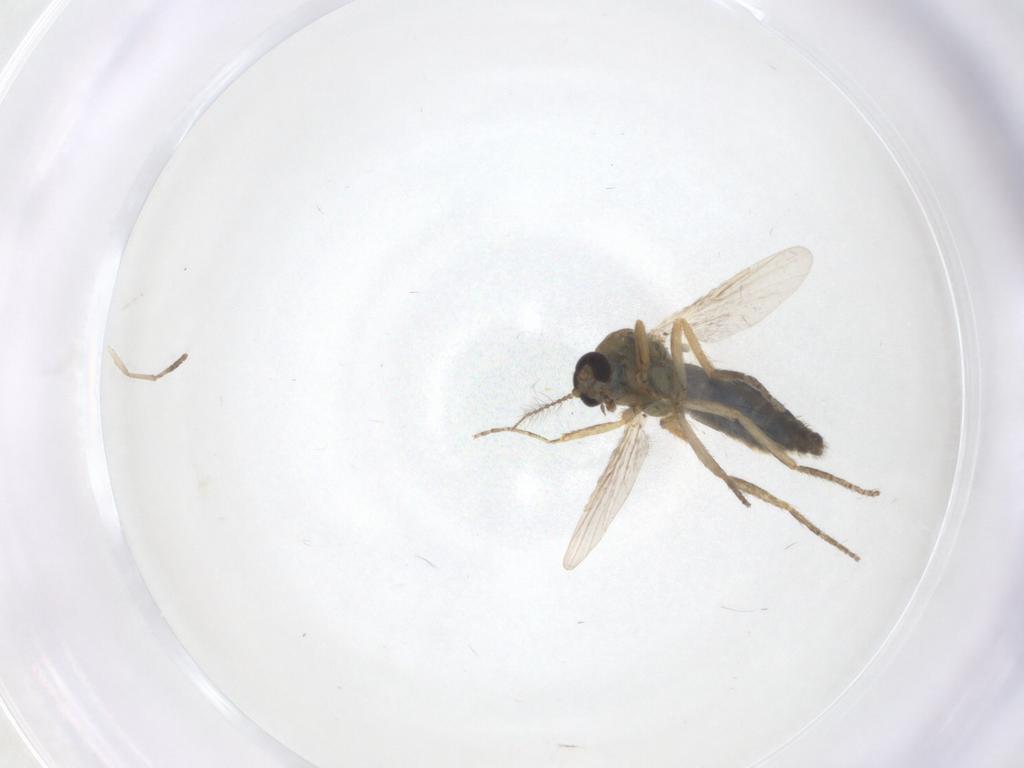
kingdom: Animalia
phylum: Arthropoda
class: Insecta
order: Diptera
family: Ceratopogonidae
